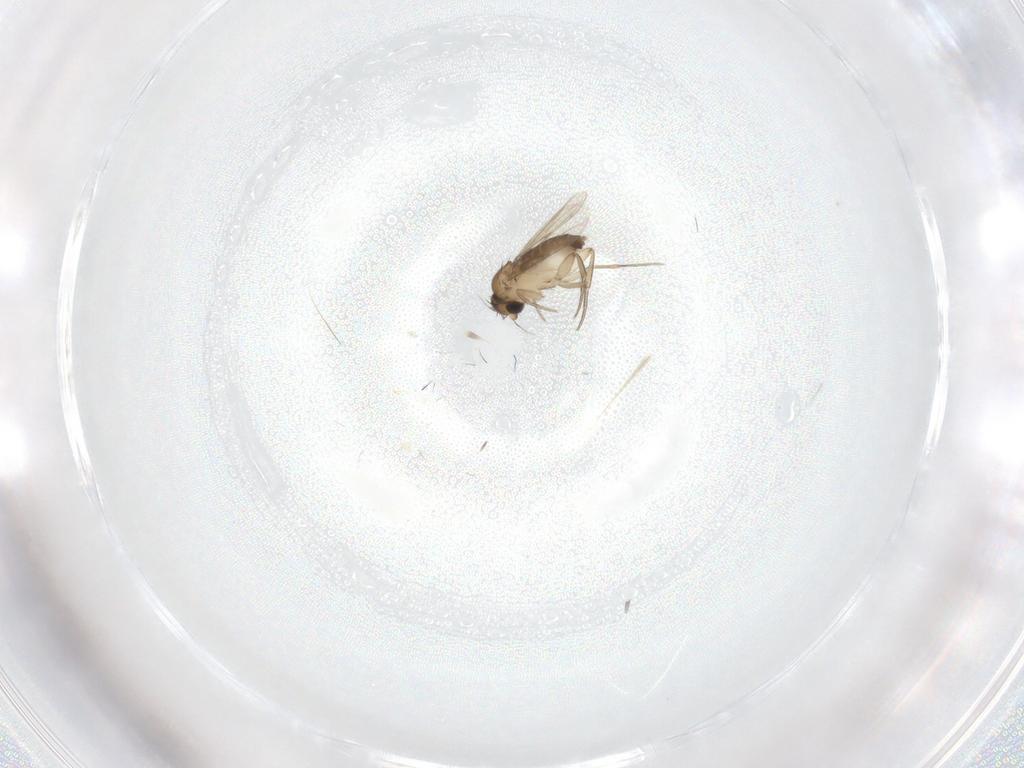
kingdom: Animalia
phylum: Arthropoda
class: Insecta
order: Diptera
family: Phoridae
